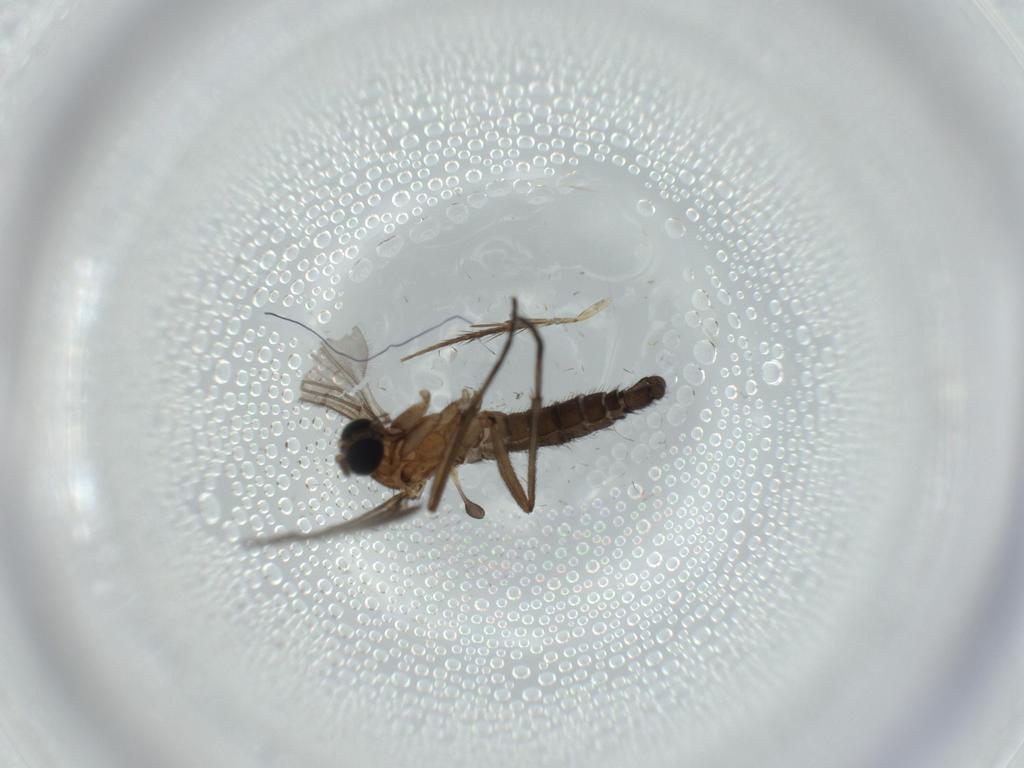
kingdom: Animalia
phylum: Arthropoda
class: Insecta
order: Diptera
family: Sciaridae
